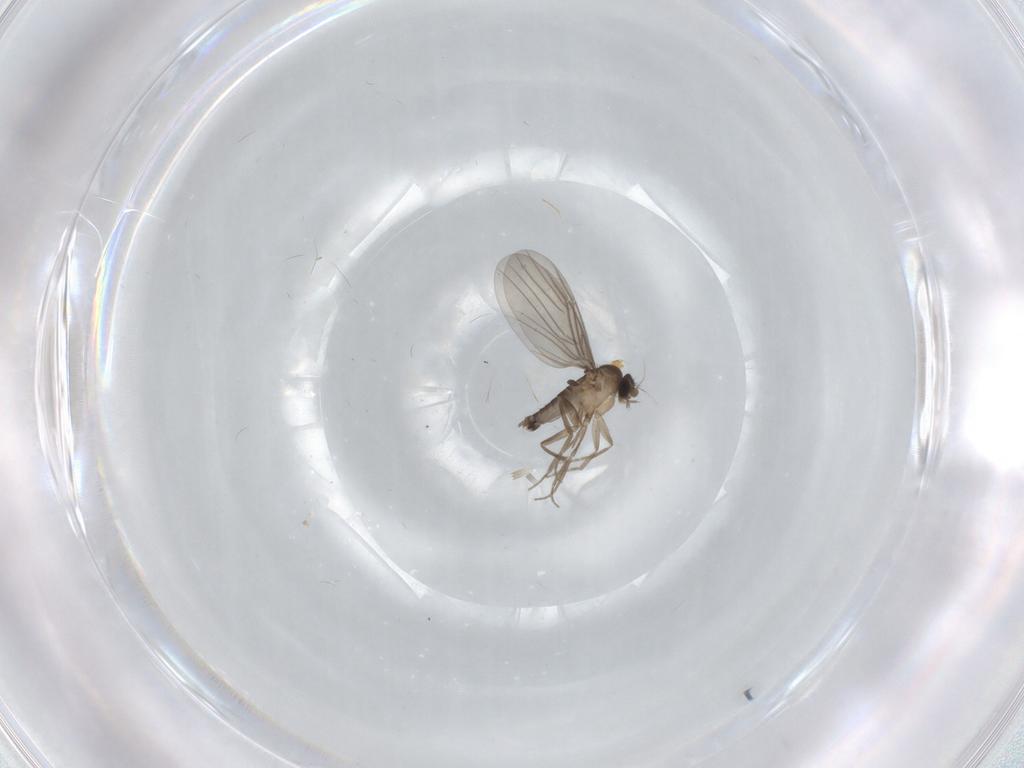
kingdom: Animalia
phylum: Arthropoda
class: Insecta
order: Diptera
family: Phoridae
